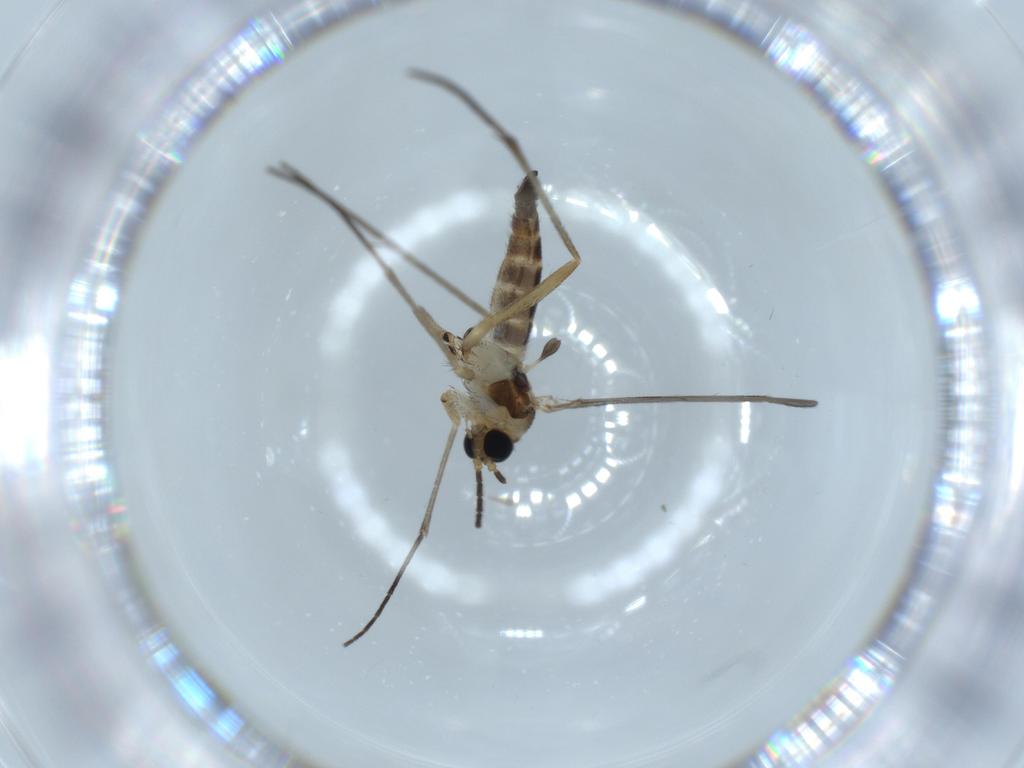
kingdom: Animalia
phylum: Arthropoda
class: Insecta
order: Diptera
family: Sciaridae
